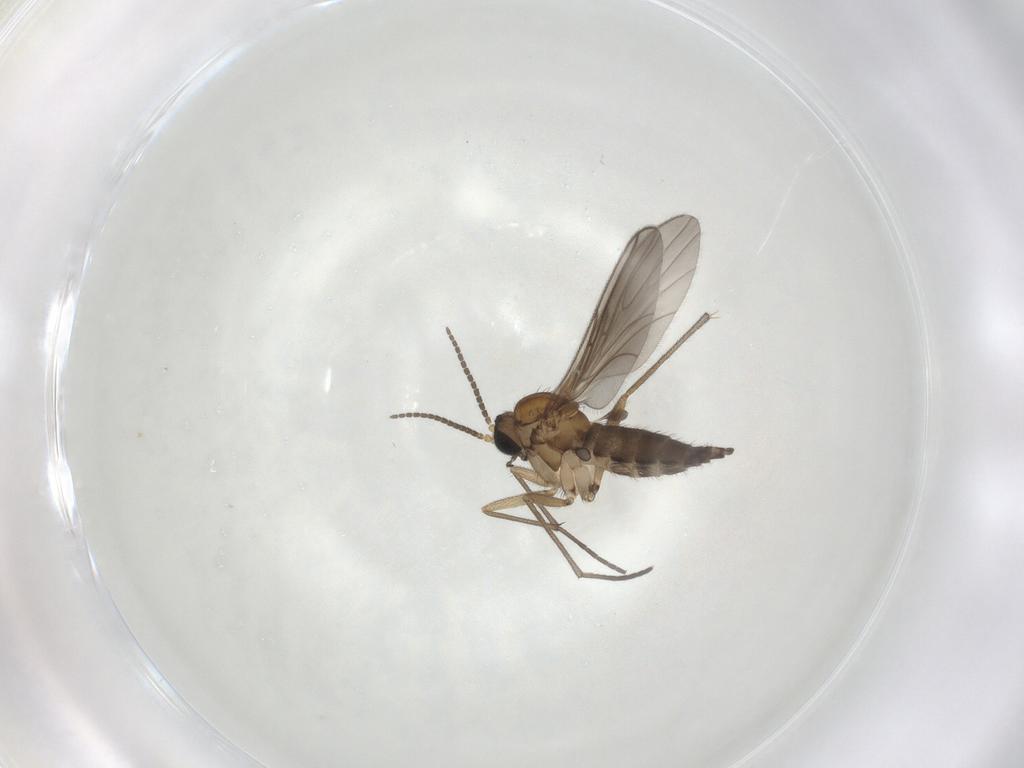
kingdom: Animalia
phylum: Arthropoda
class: Insecta
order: Diptera
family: Sciaridae
